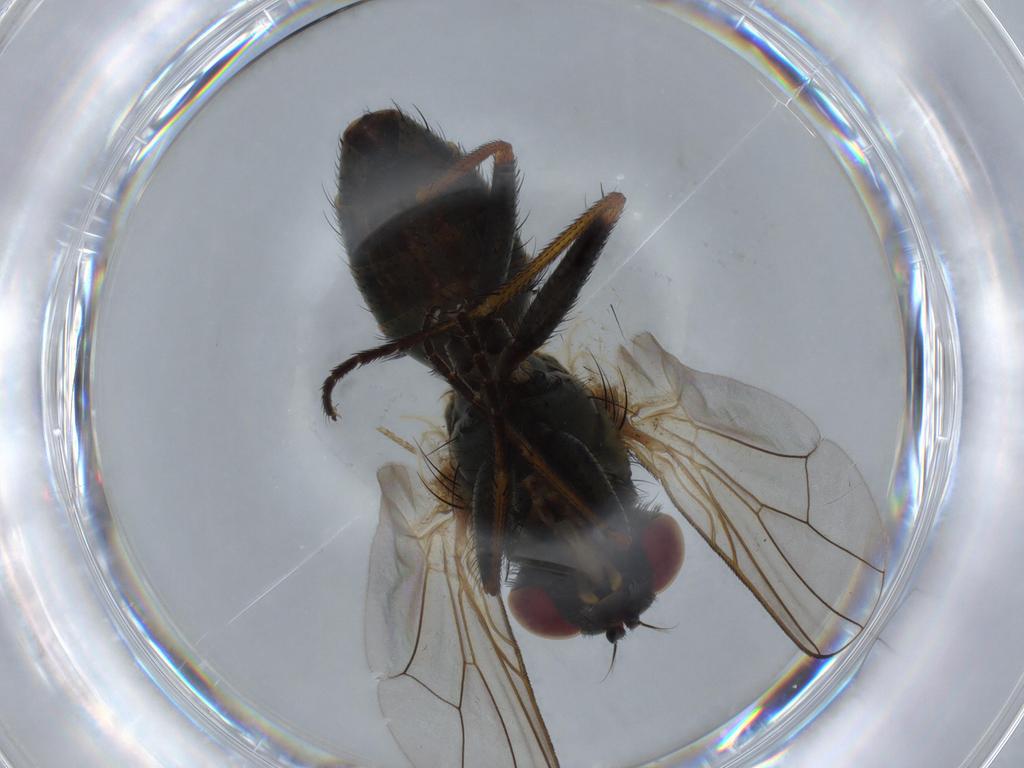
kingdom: Animalia
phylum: Arthropoda
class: Insecta
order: Diptera
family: Muscidae
